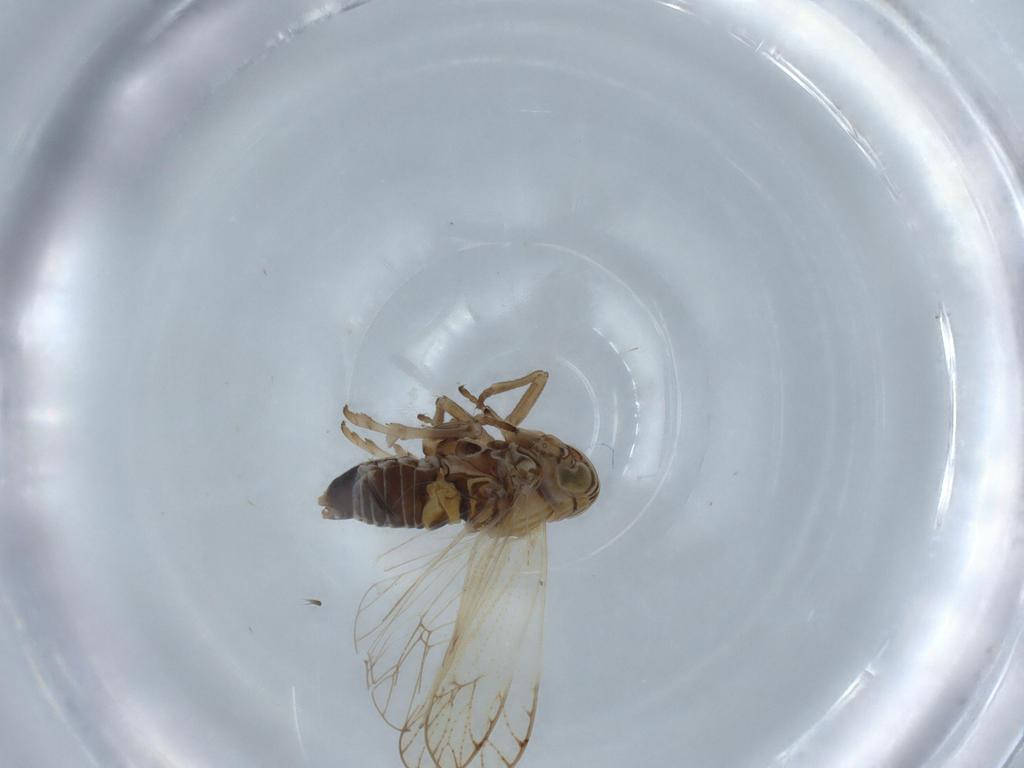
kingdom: Animalia
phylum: Arthropoda
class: Insecta
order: Hemiptera
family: Delphacidae
